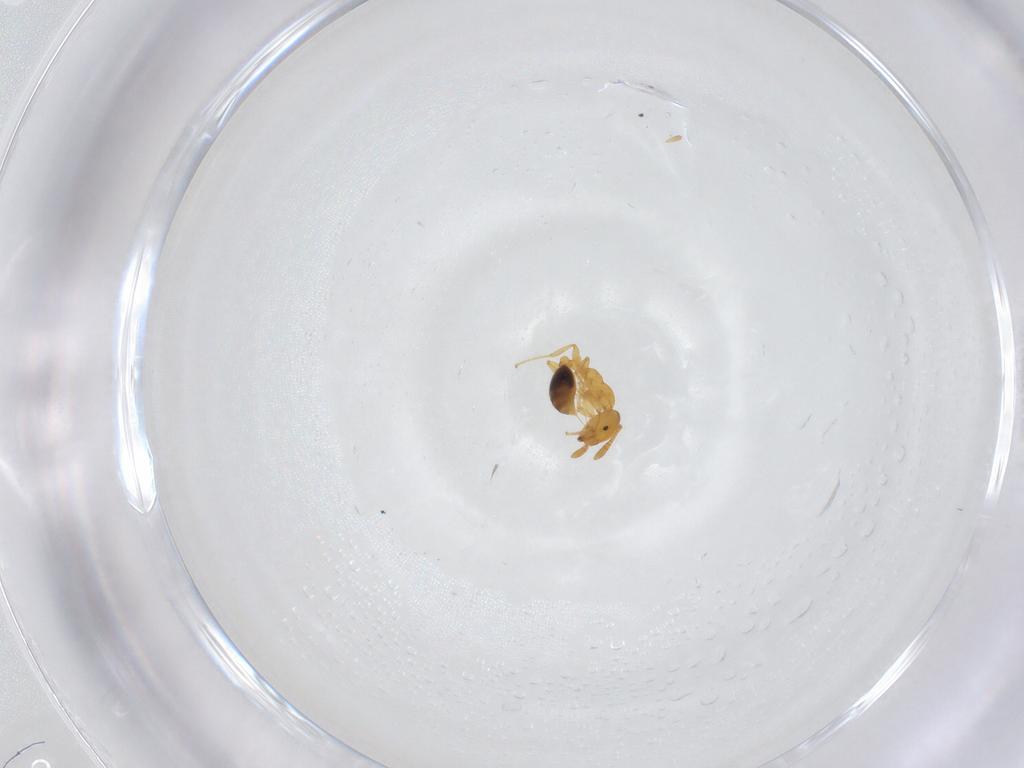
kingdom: Animalia
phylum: Arthropoda
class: Insecta
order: Hymenoptera
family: Formicidae
